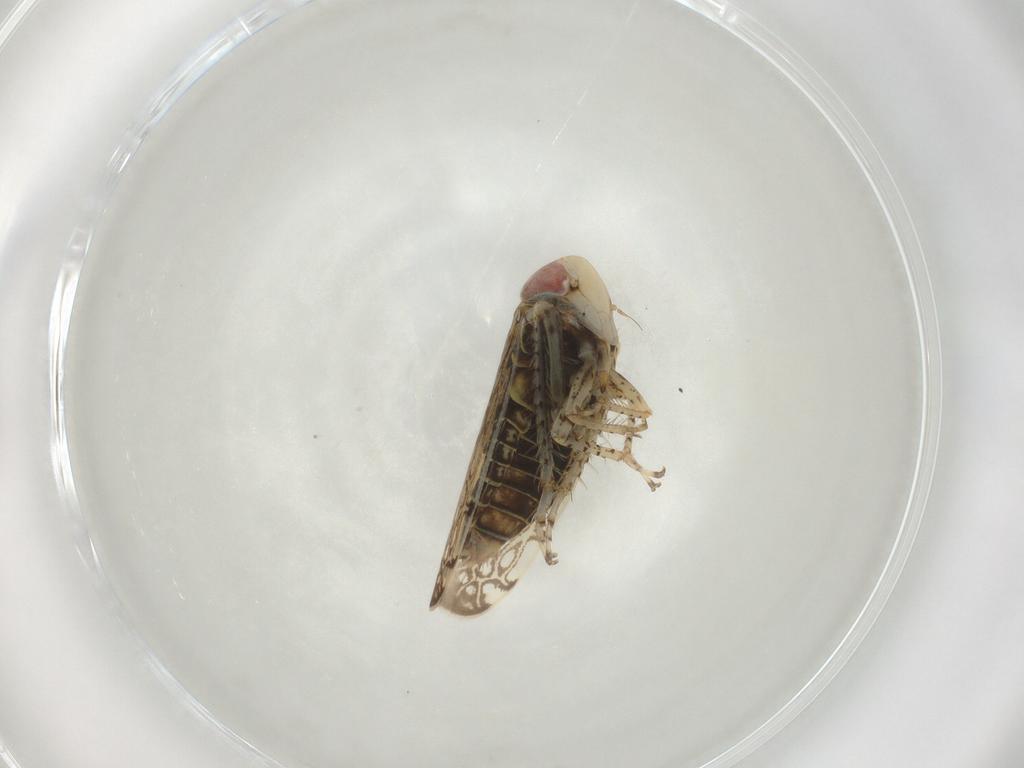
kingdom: Animalia
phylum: Arthropoda
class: Insecta
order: Hemiptera
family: Cicadellidae
